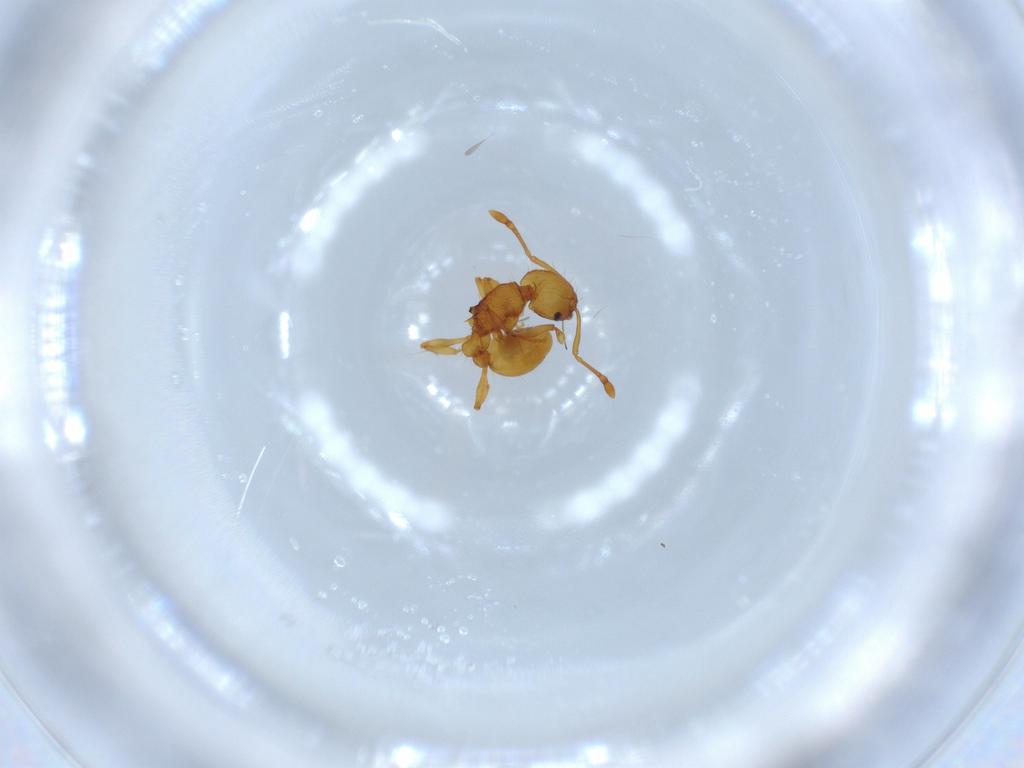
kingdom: Animalia
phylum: Arthropoda
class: Insecta
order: Hymenoptera
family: Formicidae
